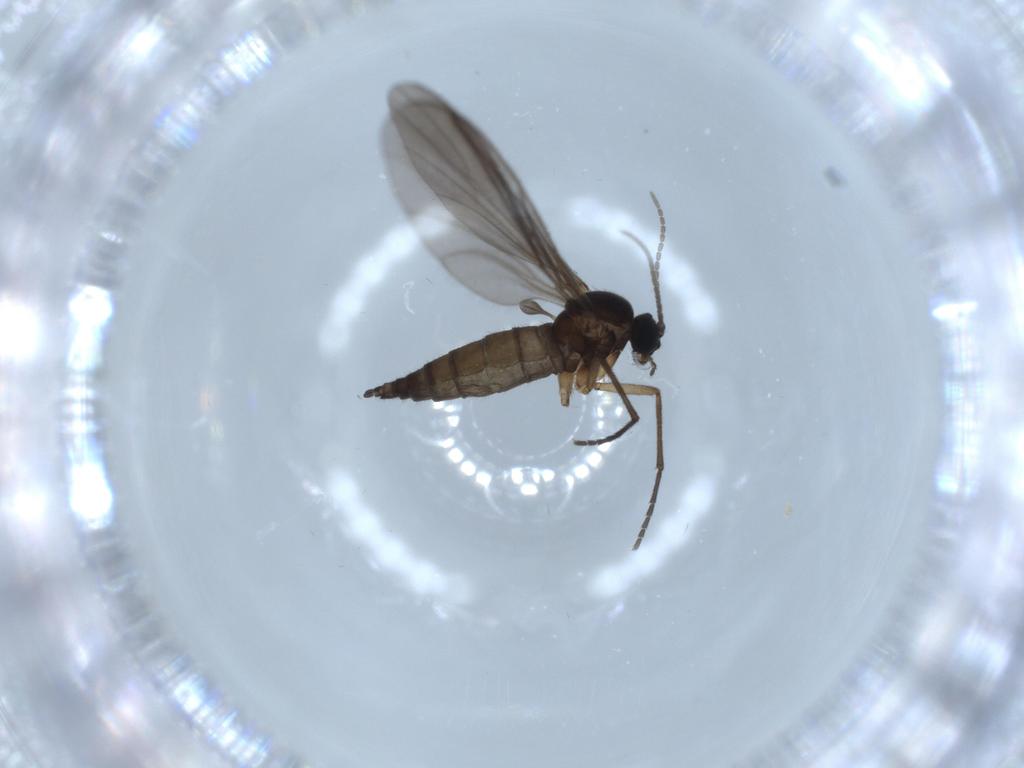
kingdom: Animalia
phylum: Arthropoda
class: Insecta
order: Diptera
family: Sciaridae
